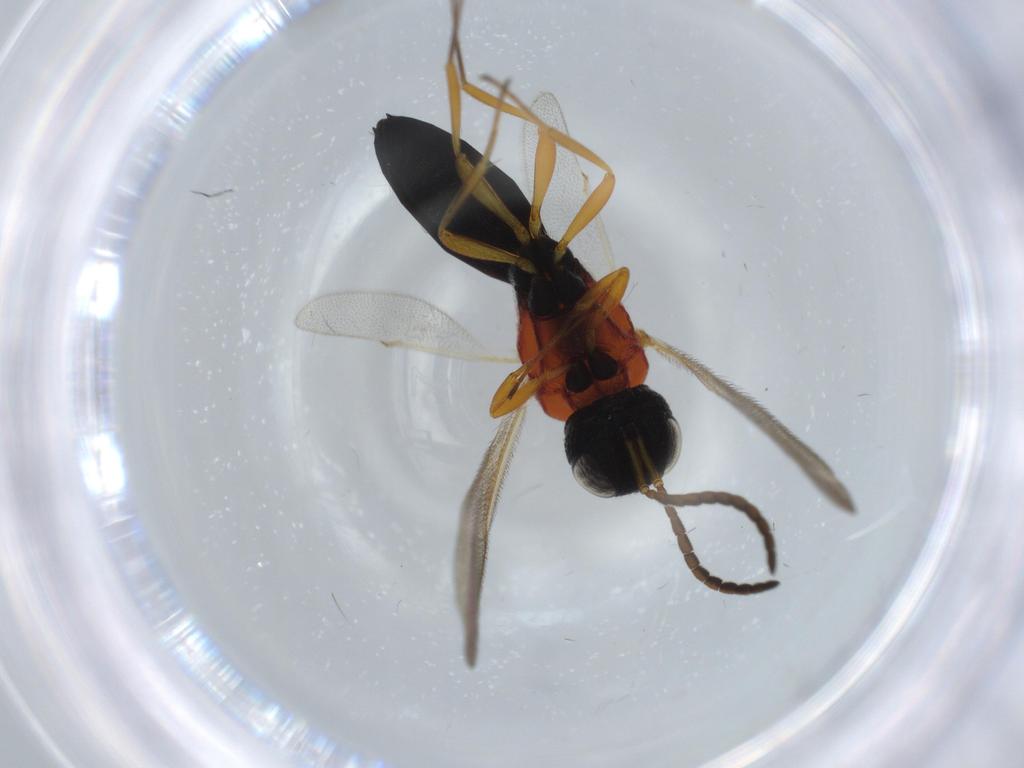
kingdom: Animalia
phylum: Arthropoda
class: Insecta
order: Hymenoptera
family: Scelionidae
